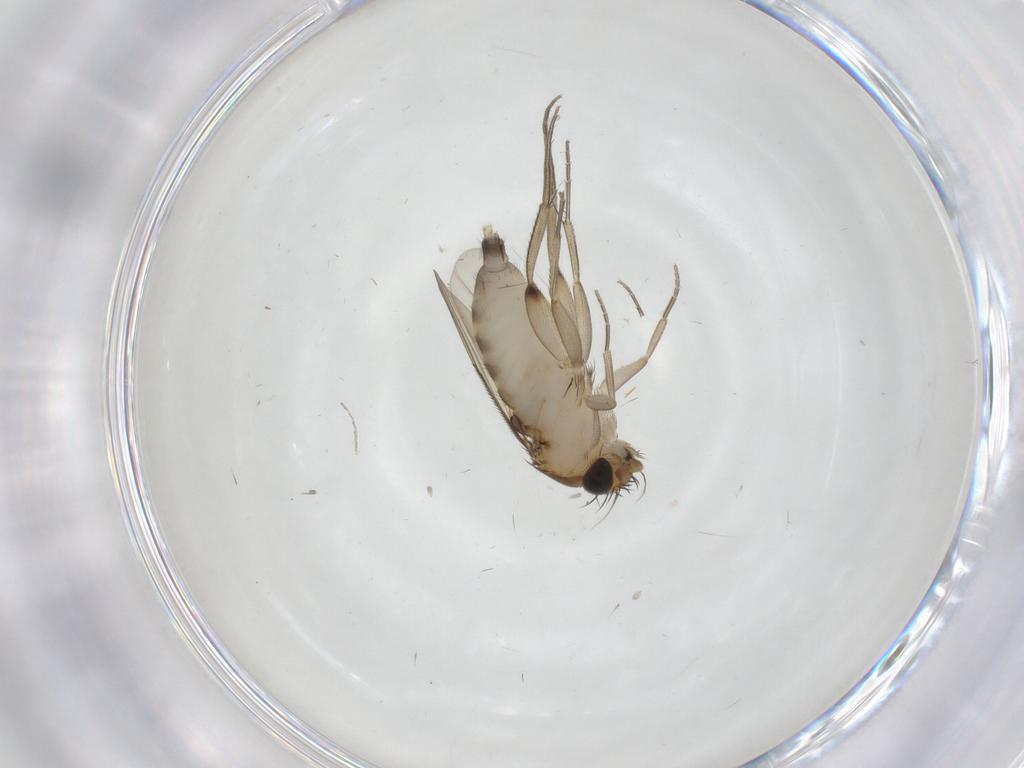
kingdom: Animalia
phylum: Arthropoda
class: Insecta
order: Diptera
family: Phoridae
